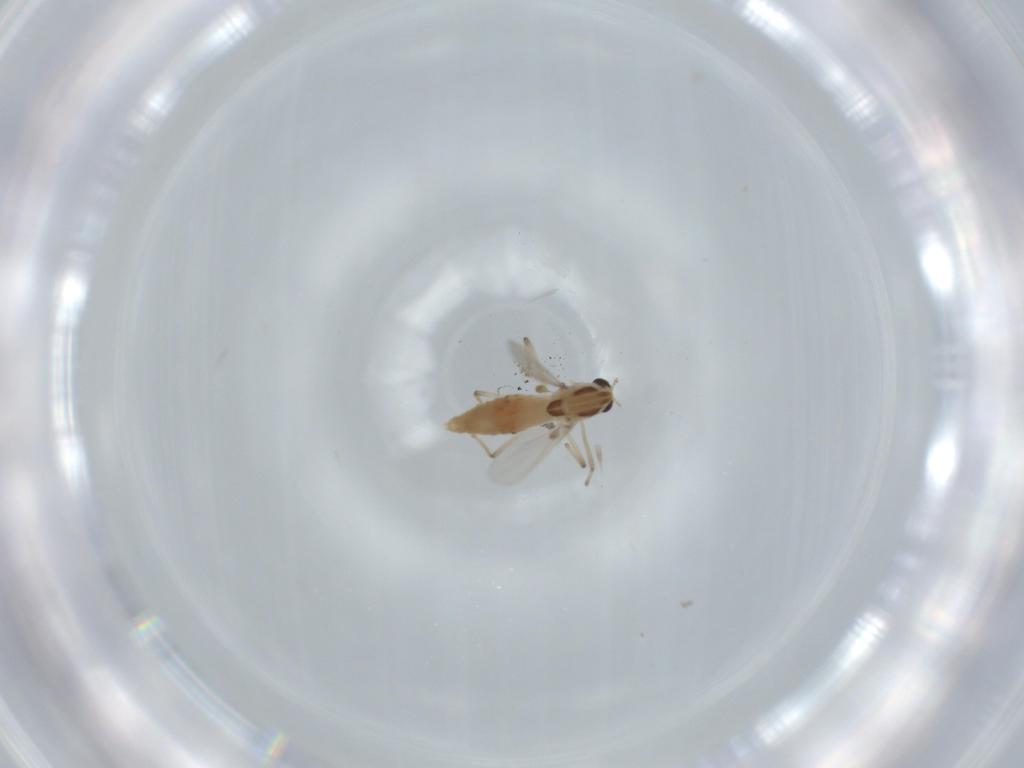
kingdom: Animalia
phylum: Arthropoda
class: Insecta
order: Diptera
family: Chironomidae
